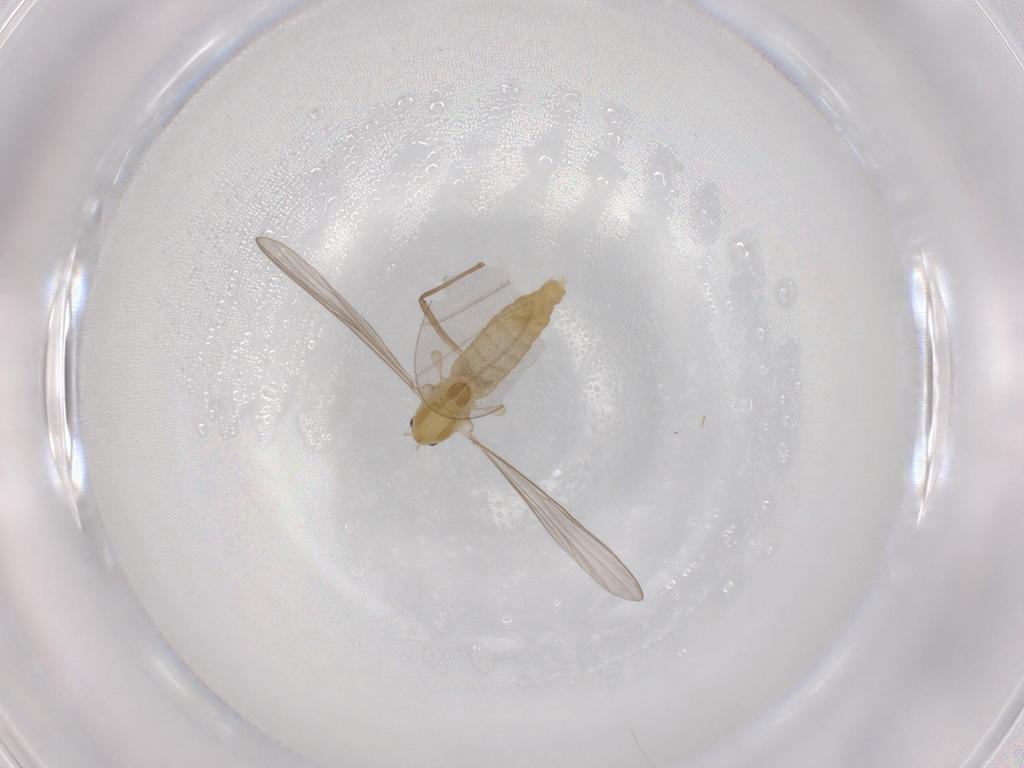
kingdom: Animalia
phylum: Arthropoda
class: Insecta
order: Diptera
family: Chironomidae
